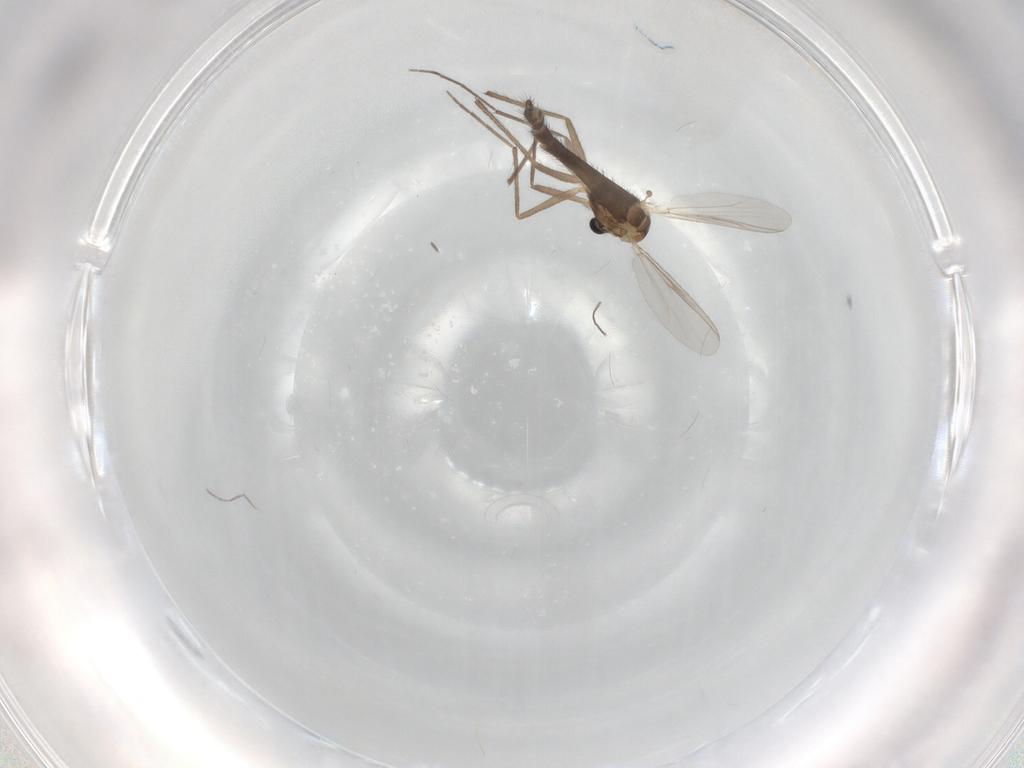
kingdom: Animalia
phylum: Arthropoda
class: Insecta
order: Diptera
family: Chironomidae
